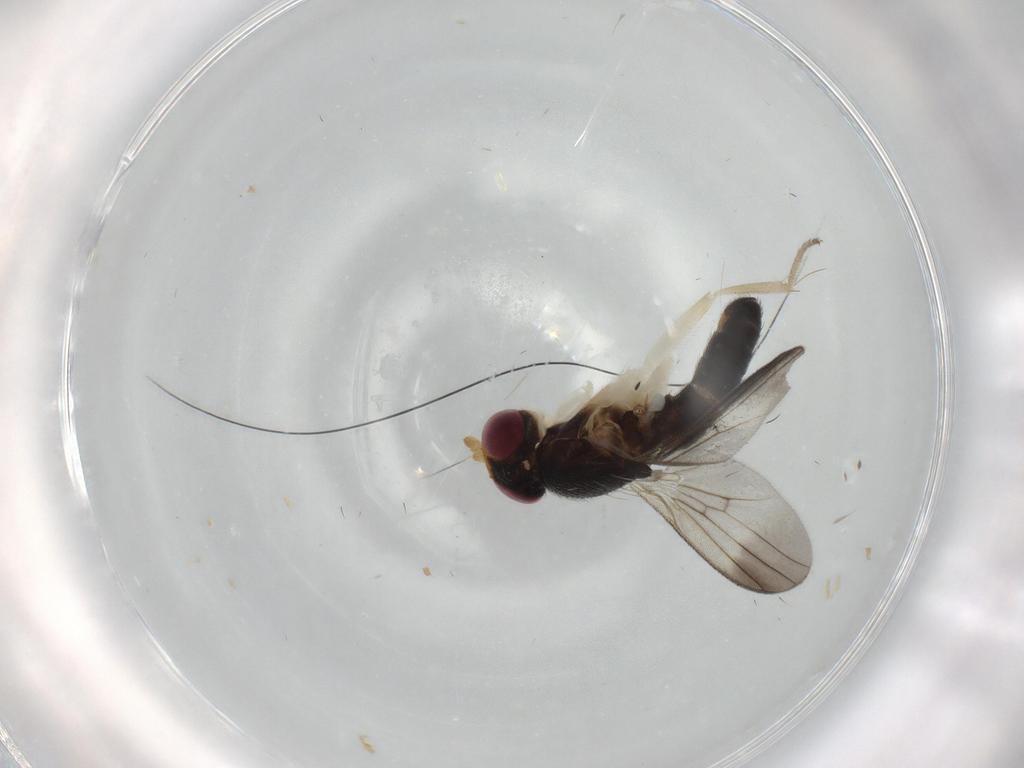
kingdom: Animalia
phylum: Arthropoda
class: Insecta
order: Diptera
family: Clusiidae
